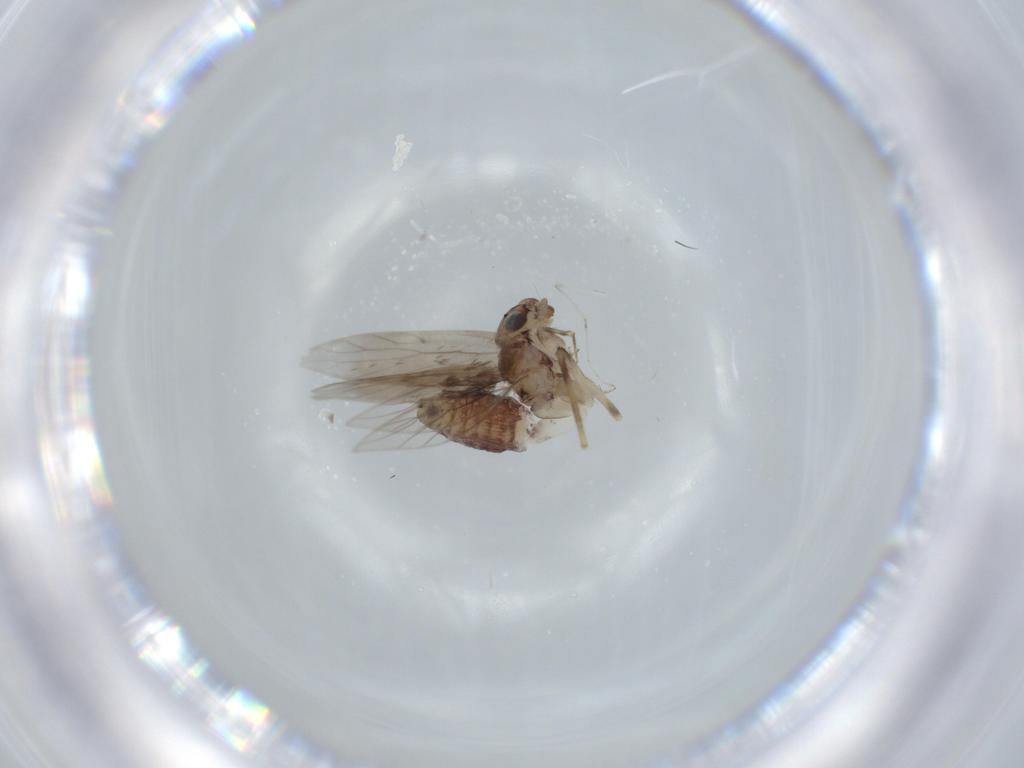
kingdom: Animalia
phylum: Arthropoda
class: Insecta
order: Psocodea
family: Lepidopsocidae
